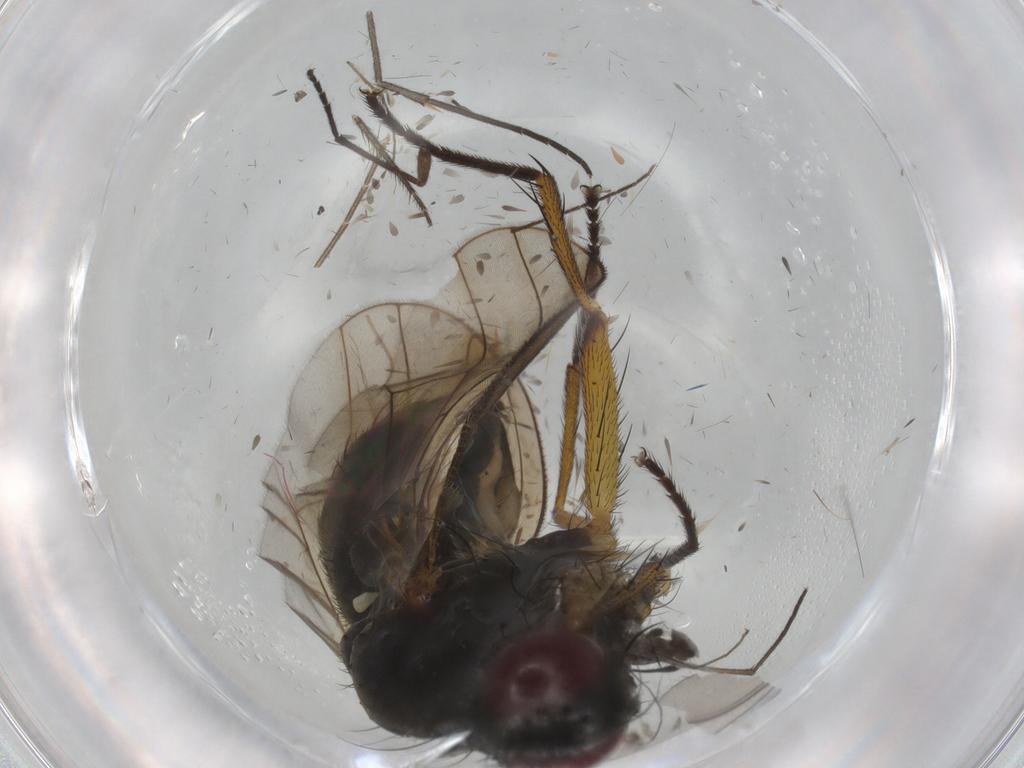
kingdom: Animalia
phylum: Arthropoda
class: Insecta
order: Diptera
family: Muscidae
